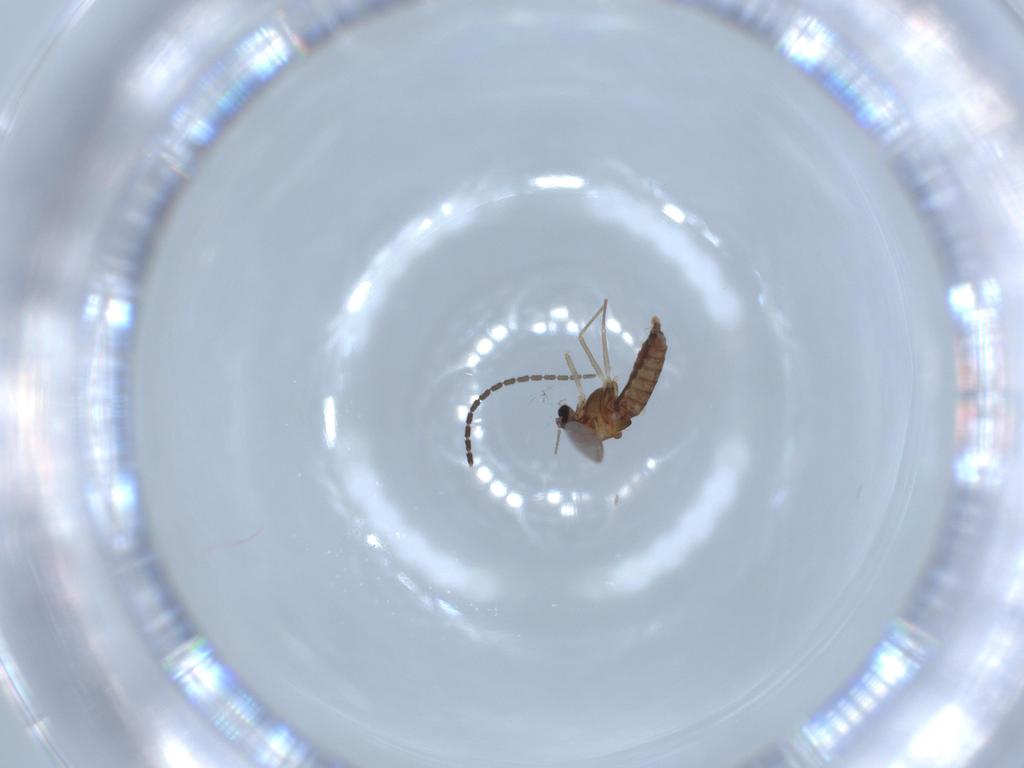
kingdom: Animalia
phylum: Arthropoda
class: Insecta
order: Diptera
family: Chironomidae
